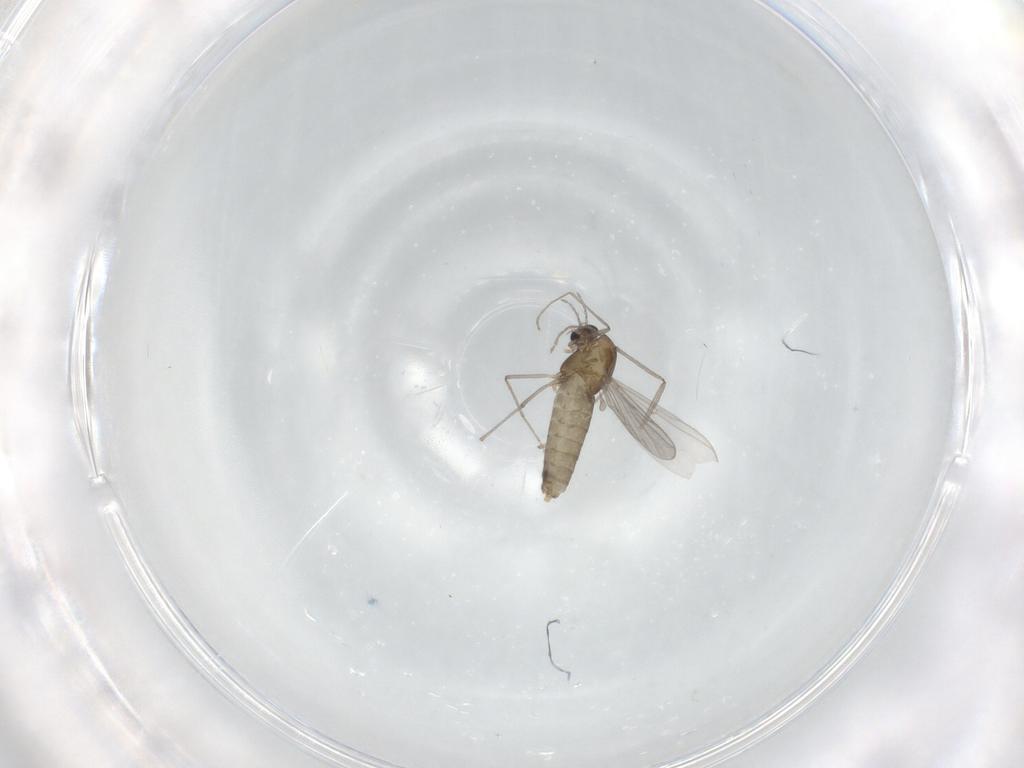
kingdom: Animalia
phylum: Arthropoda
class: Insecta
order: Diptera
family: Chironomidae
